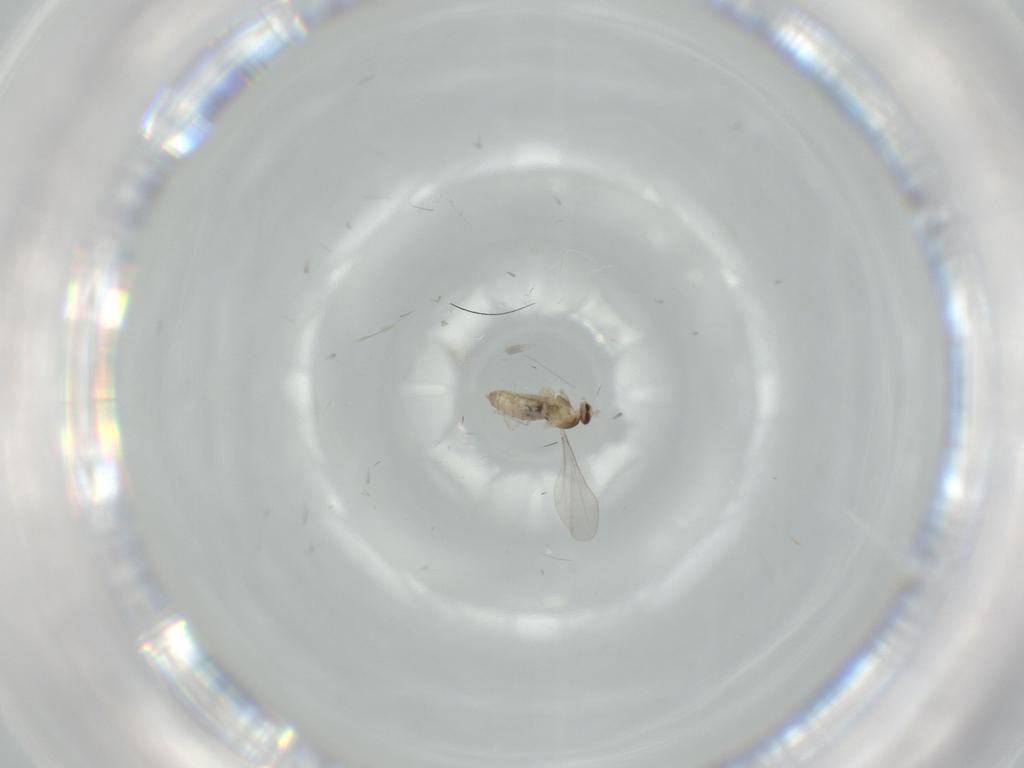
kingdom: Animalia
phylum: Arthropoda
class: Insecta
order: Diptera
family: Cecidomyiidae
